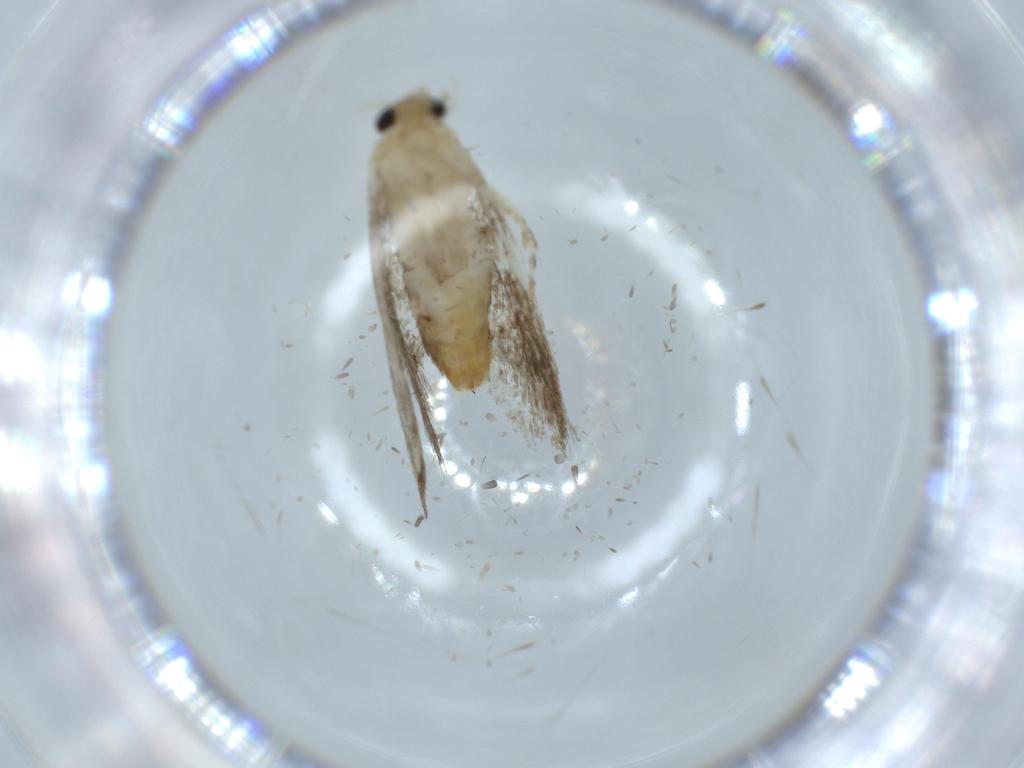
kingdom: Animalia
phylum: Arthropoda
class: Insecta
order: Lepidoptera
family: Tineidae
